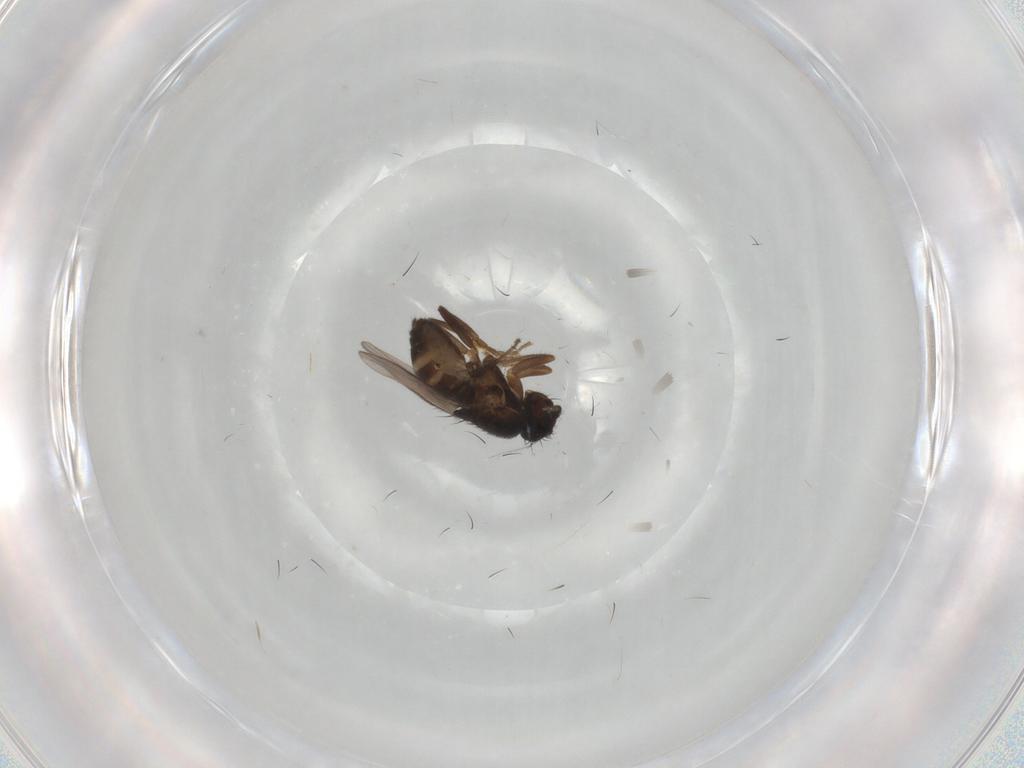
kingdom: Animalia
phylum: Arthropoda
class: Insecta
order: Diptera
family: Sphaeroceridae
